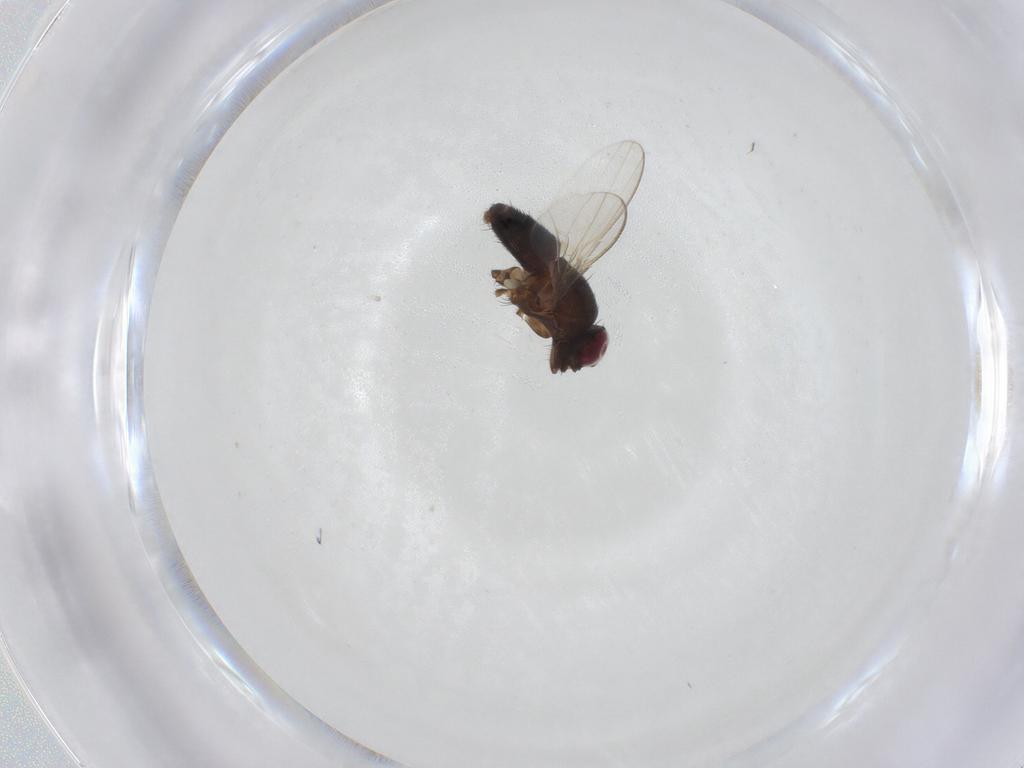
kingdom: Animalia
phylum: Arthropoda
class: Insecta
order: Diptera
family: Milichiidae
